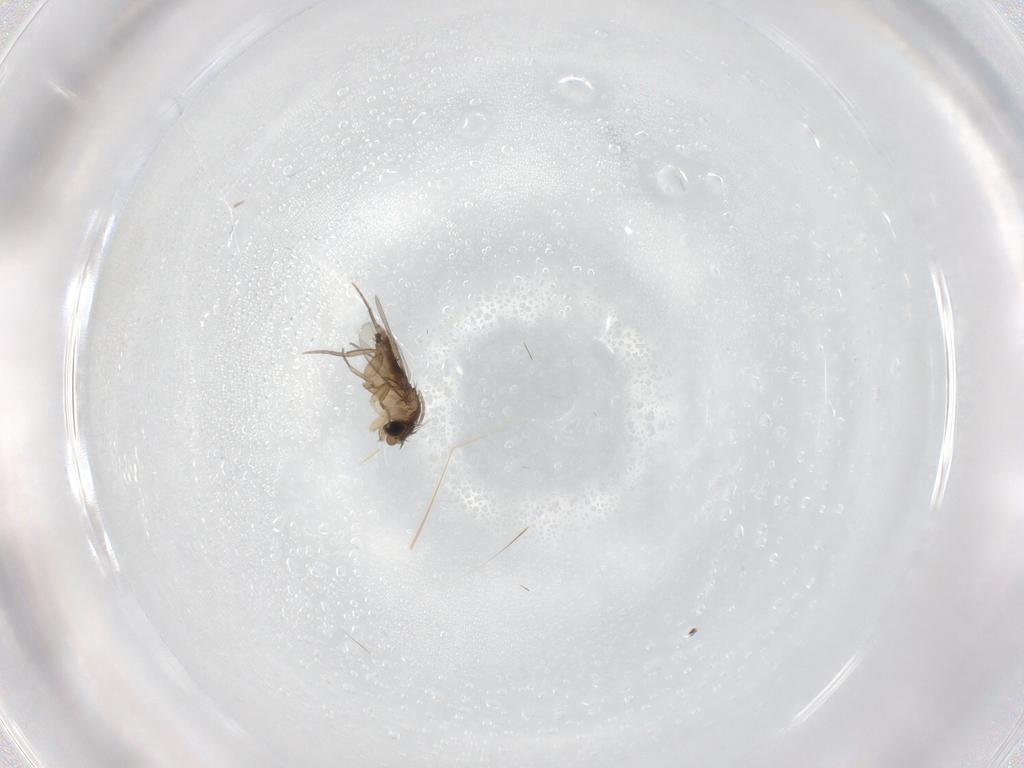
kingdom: Animalia
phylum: Arthropoda
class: Insecta
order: Diptera
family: Phoridae
